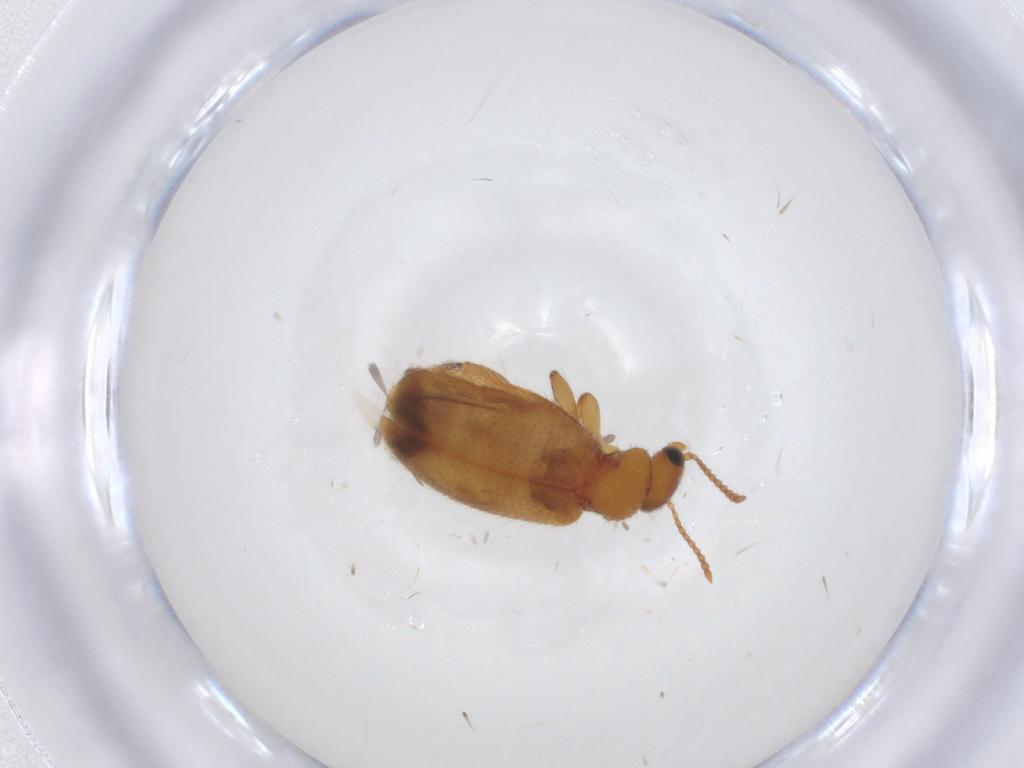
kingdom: Animalia
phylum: Arthropoda
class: Insecta
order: Coleoptera
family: Anthicidae
